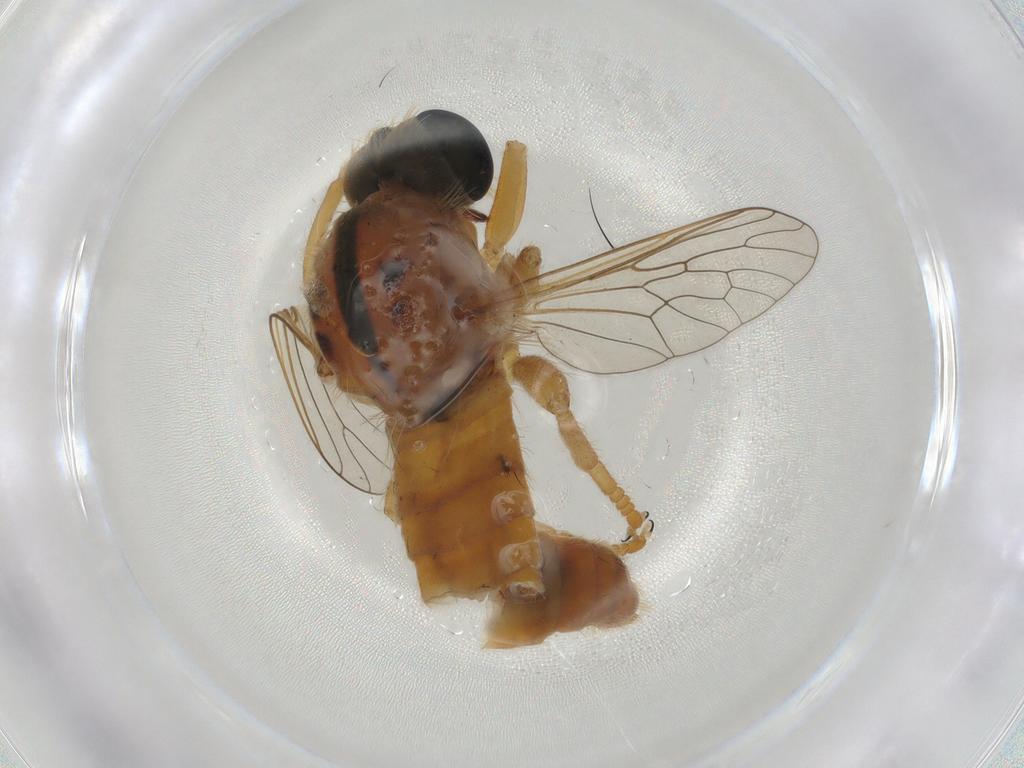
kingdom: Animalia
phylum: Arthropoda
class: Insecta
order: Diptera
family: Therevidae
